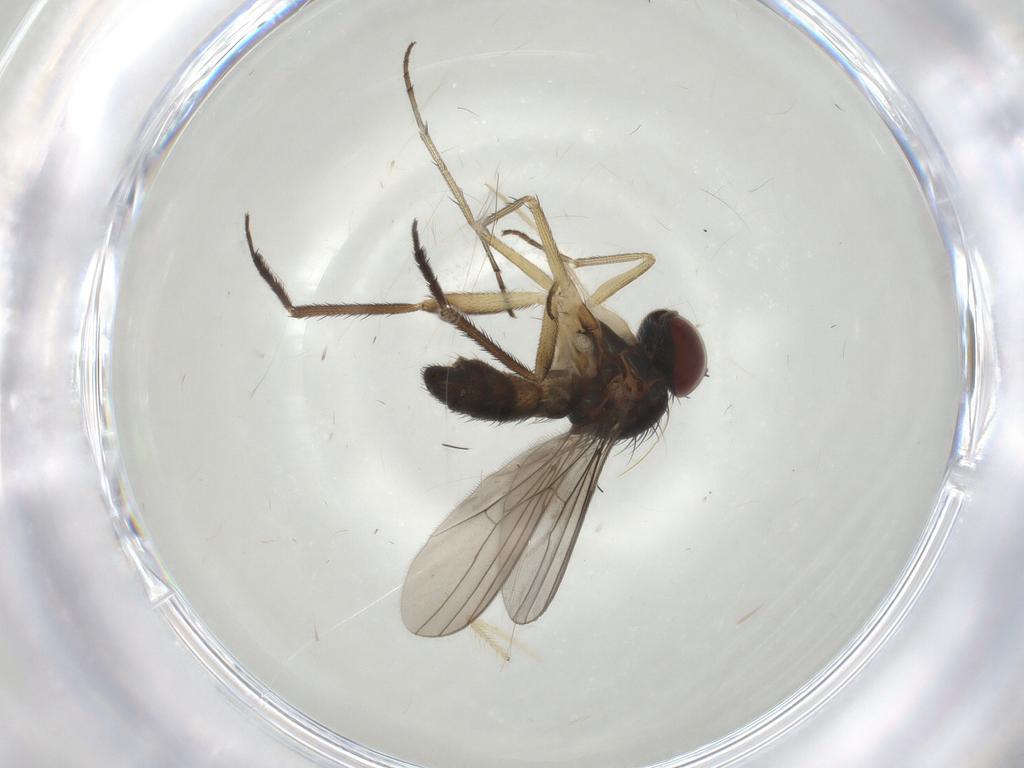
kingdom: Animalia
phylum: Arthropoda
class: Insecta
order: Diptera
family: Dolichopodidae
